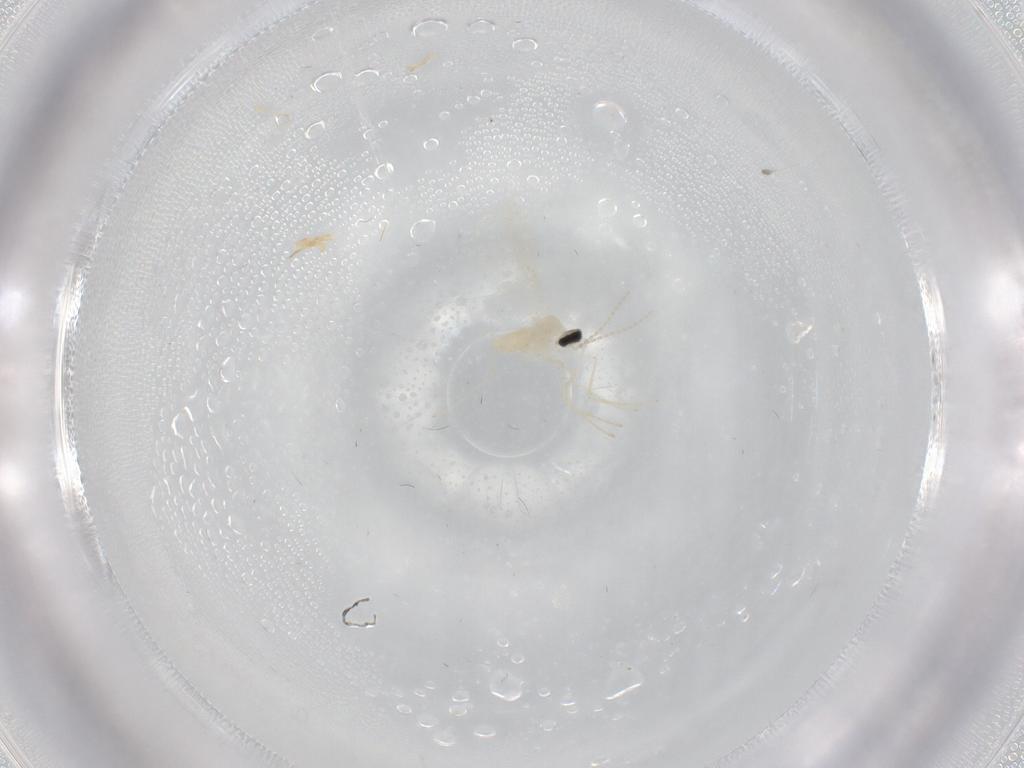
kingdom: Animalia
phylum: Arthropoda
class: Insecta
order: Diptera
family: Cecidomyiidae
